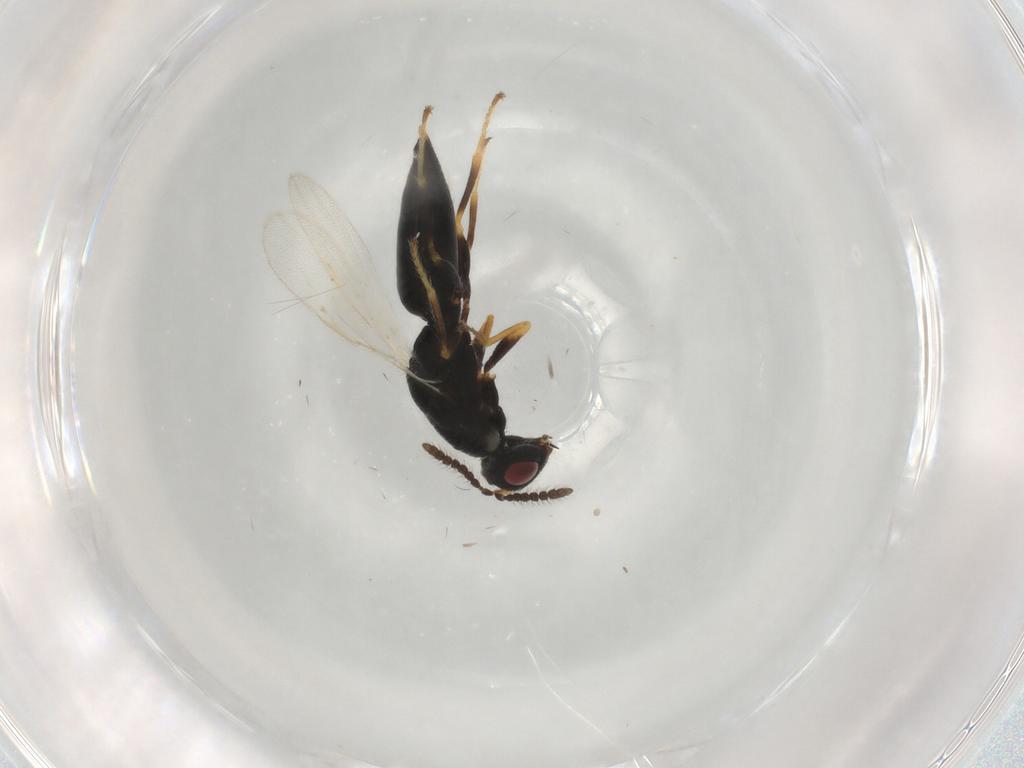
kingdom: Animalia
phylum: Arthropoda
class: Insecta
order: Hymenoptera
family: Eurytomidae
